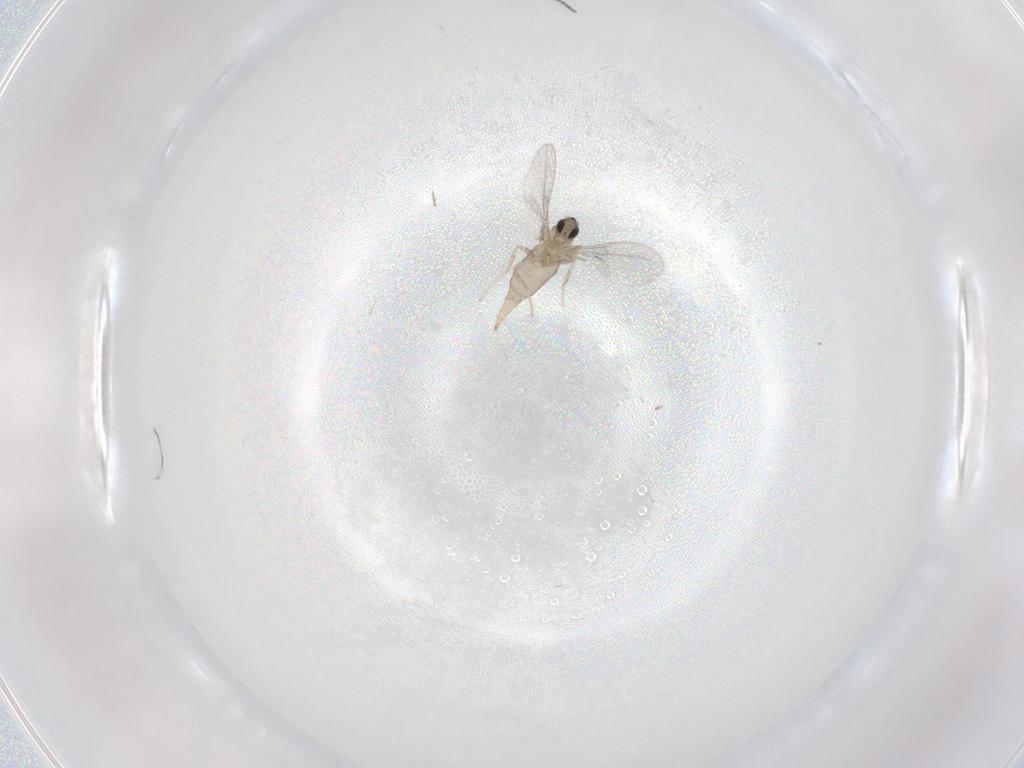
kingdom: Animalia
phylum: Arthropoda
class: Insecta
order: Diptera
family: Cecidomyiidae
